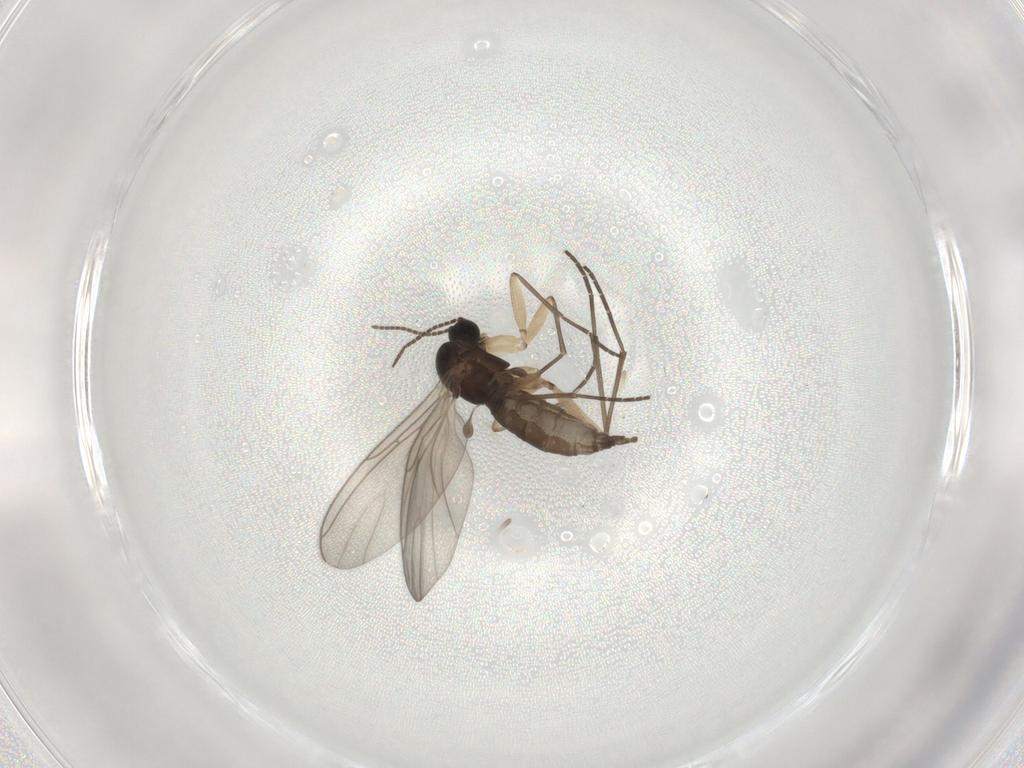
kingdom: Animalia
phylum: Arthropoda
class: Insecta
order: Diptera
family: Sciaridae
